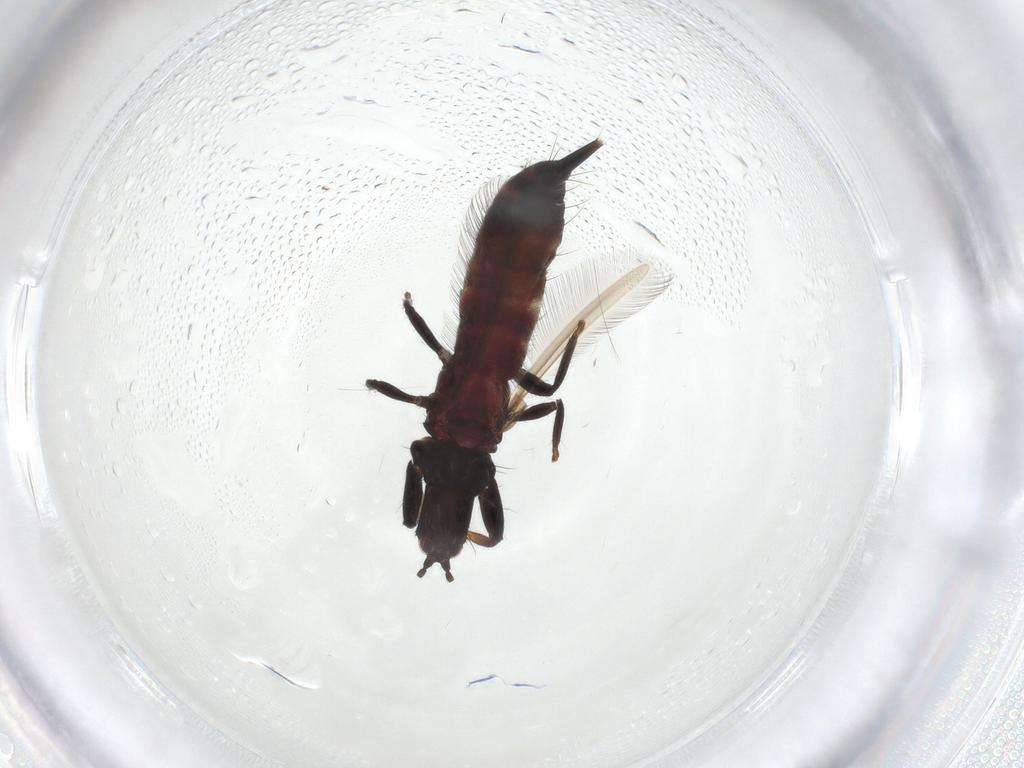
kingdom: Animalia
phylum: Arthropoda
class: Insecta
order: Thysanoptera
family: Phlaeothripidae
